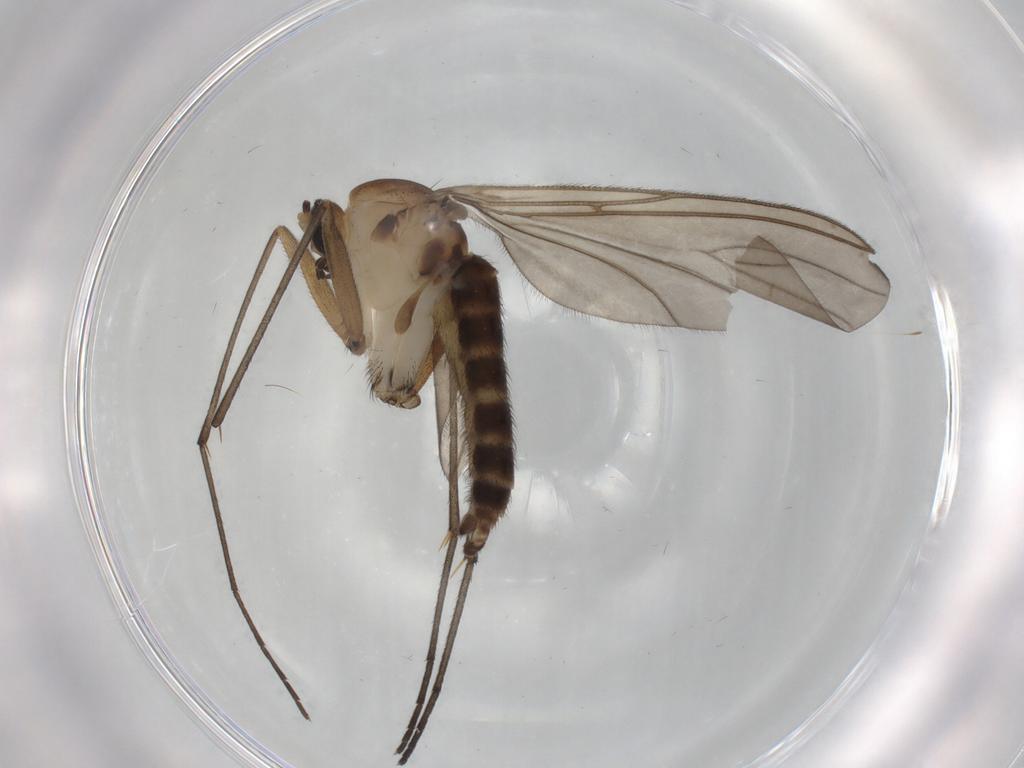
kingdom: Animalia
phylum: Arthropoda
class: Insecta
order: Diptera
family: Sciaridae
